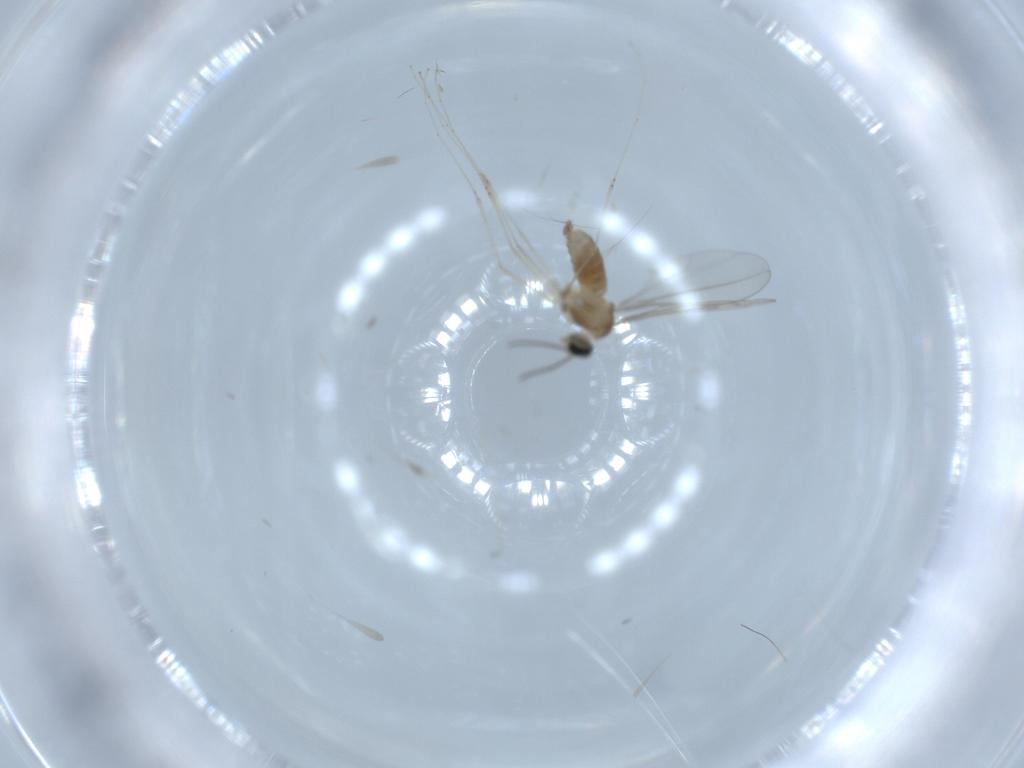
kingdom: Animalia
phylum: Arthropoda
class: Insecta
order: Diptera
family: Cecidomyiidae
